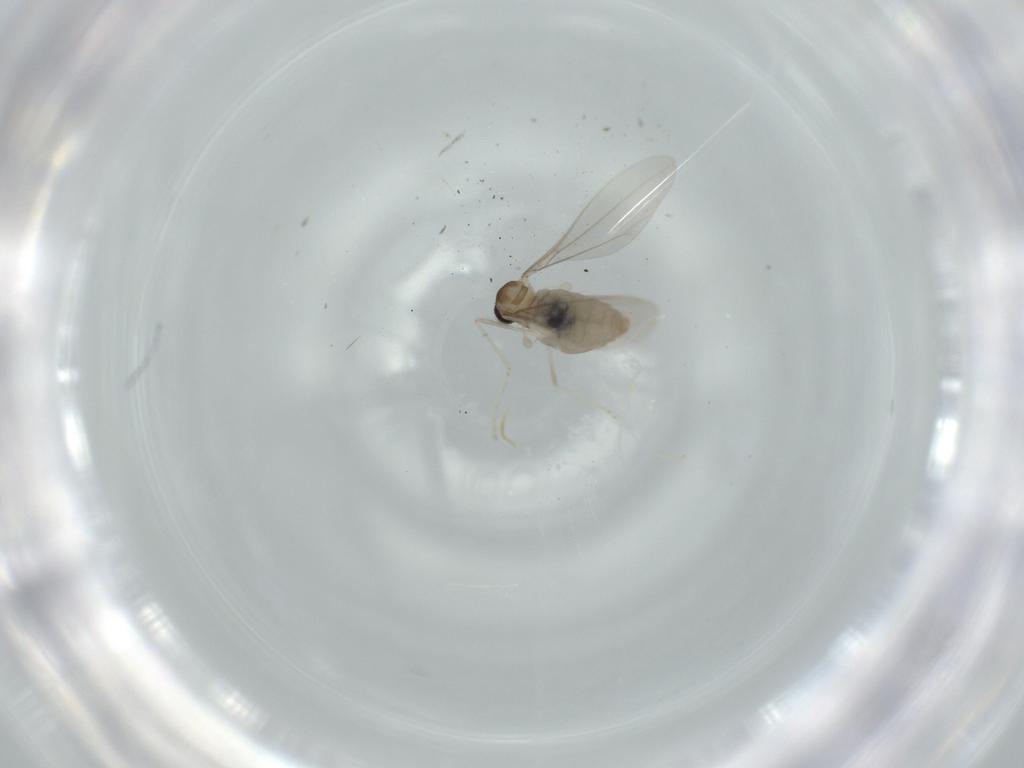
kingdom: Animalia
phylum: Arthropoda
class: Insecta
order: Diptera
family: Cecidomyiidae
